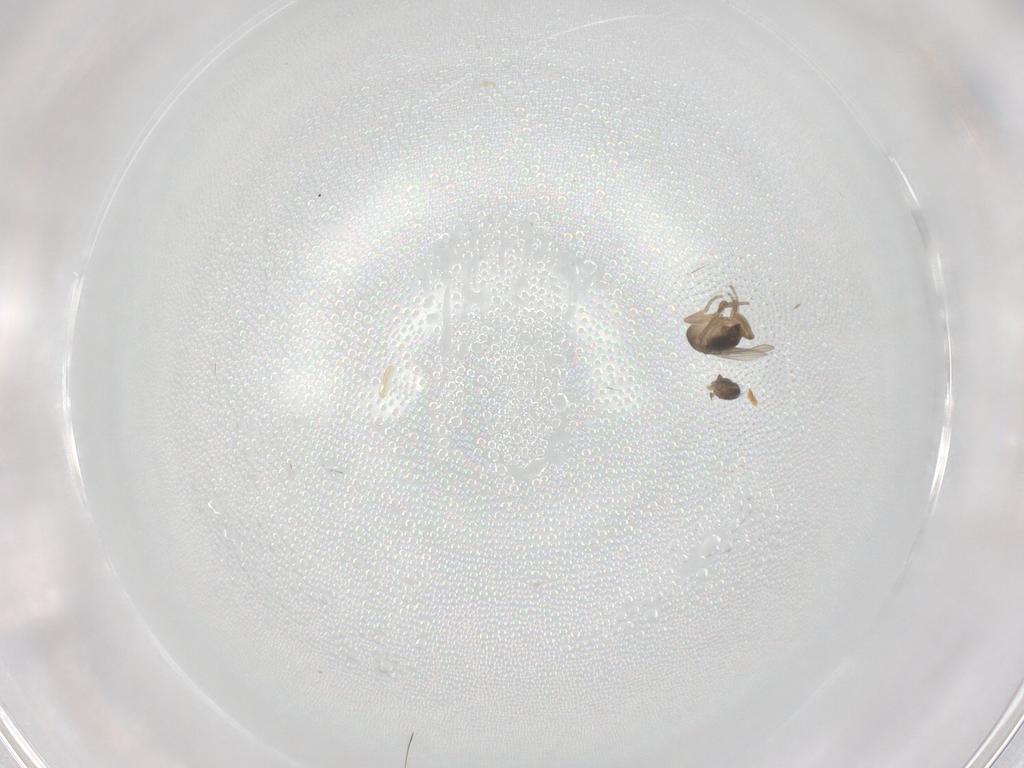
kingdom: Animalia
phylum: Arthropoda
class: Insecta
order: Diptera
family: Phoridae
